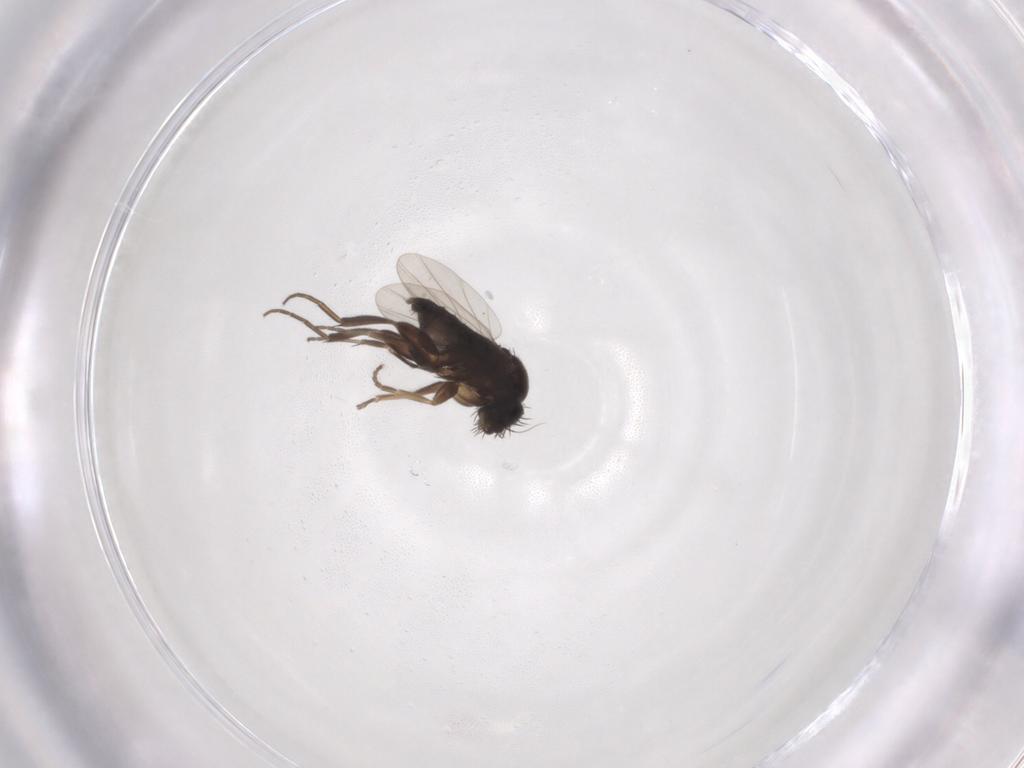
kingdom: Animalia
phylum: Arthropoda
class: Insecta
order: Diptera
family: Phoridae
